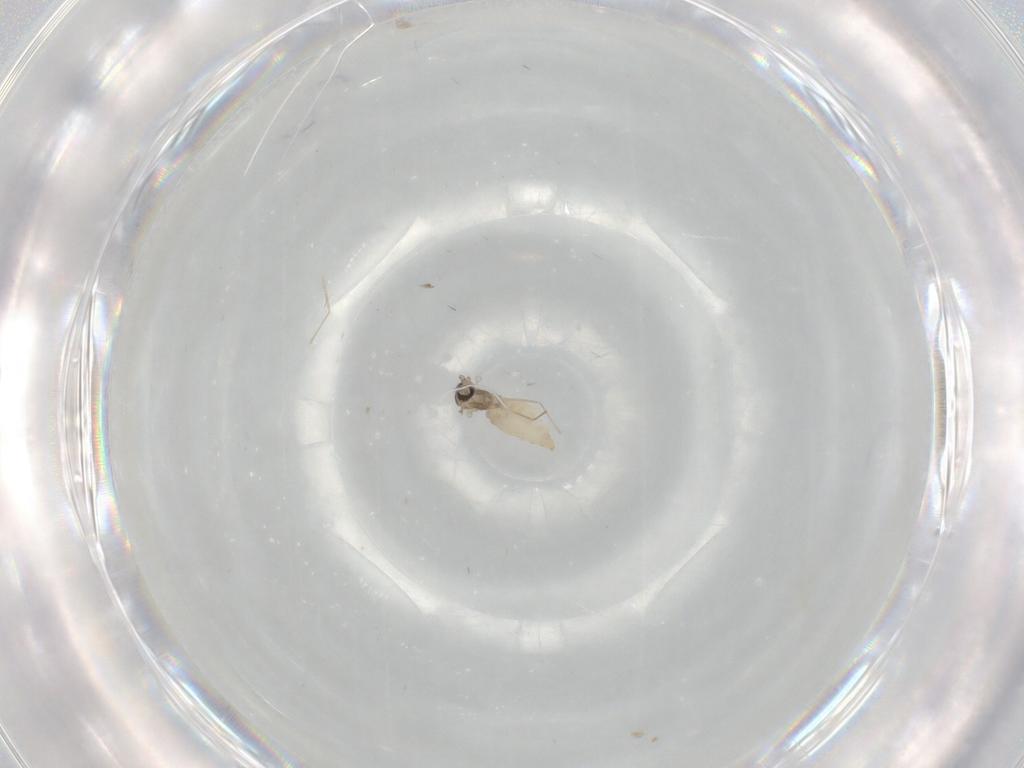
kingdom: Animalia
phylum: Arthropoda
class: Insecta
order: Diptera
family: Cecidomyiidae
